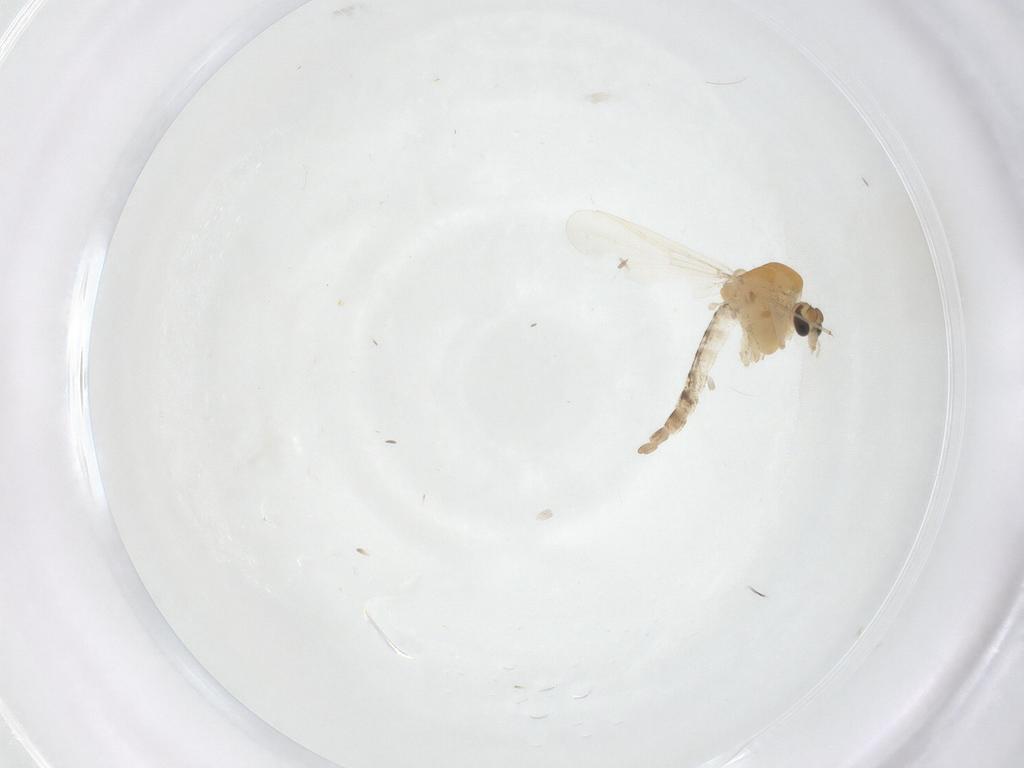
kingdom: Animalia
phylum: Arthropoda
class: Insecta
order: Diptera
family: Chironomidae
